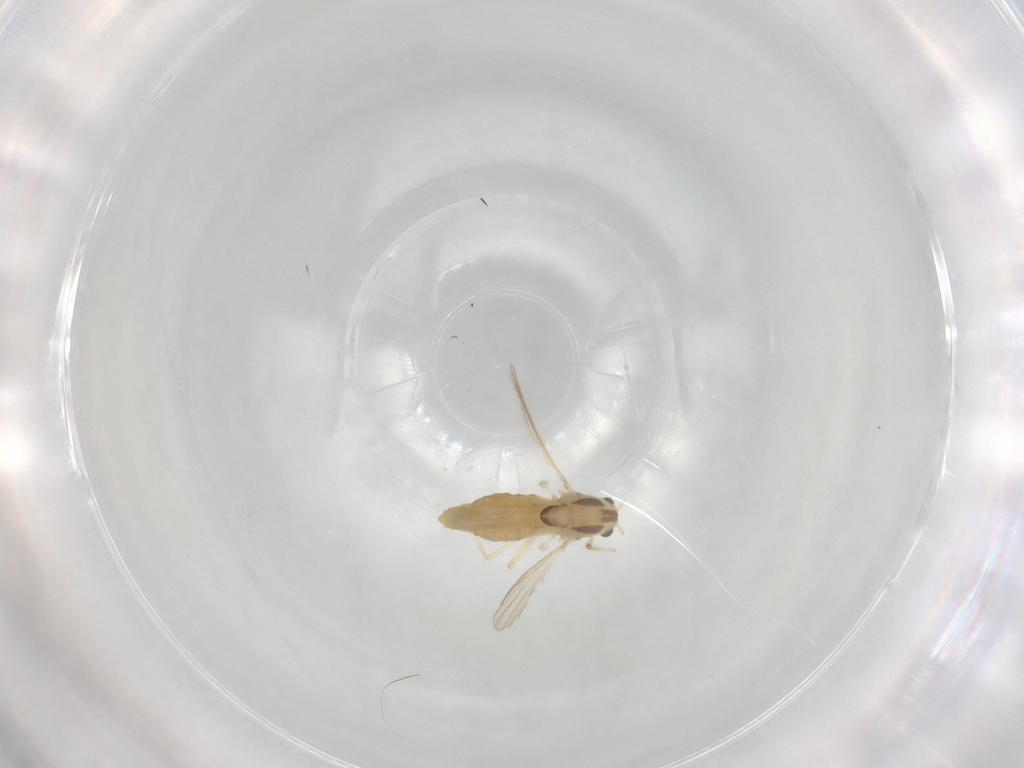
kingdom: Animalia
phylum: Arthropoda
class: Insecta
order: Diptera
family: Chironomidae
